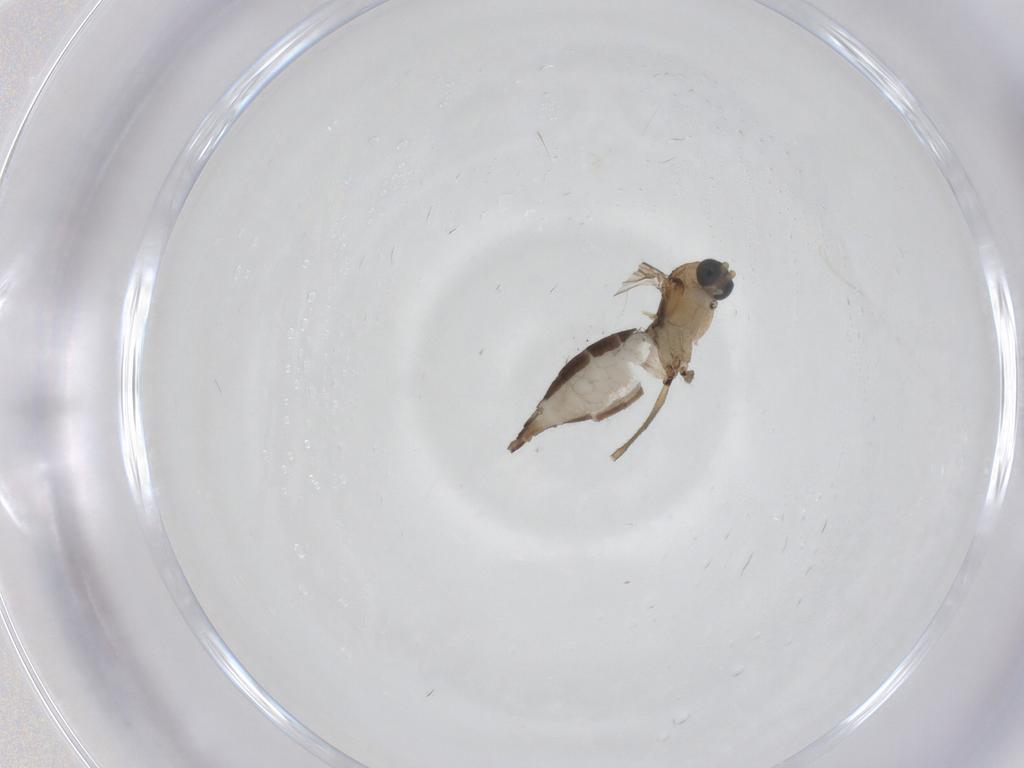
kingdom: Animalia
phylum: Arthropoda
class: Insecta
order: Diptera
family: Sciaridae
